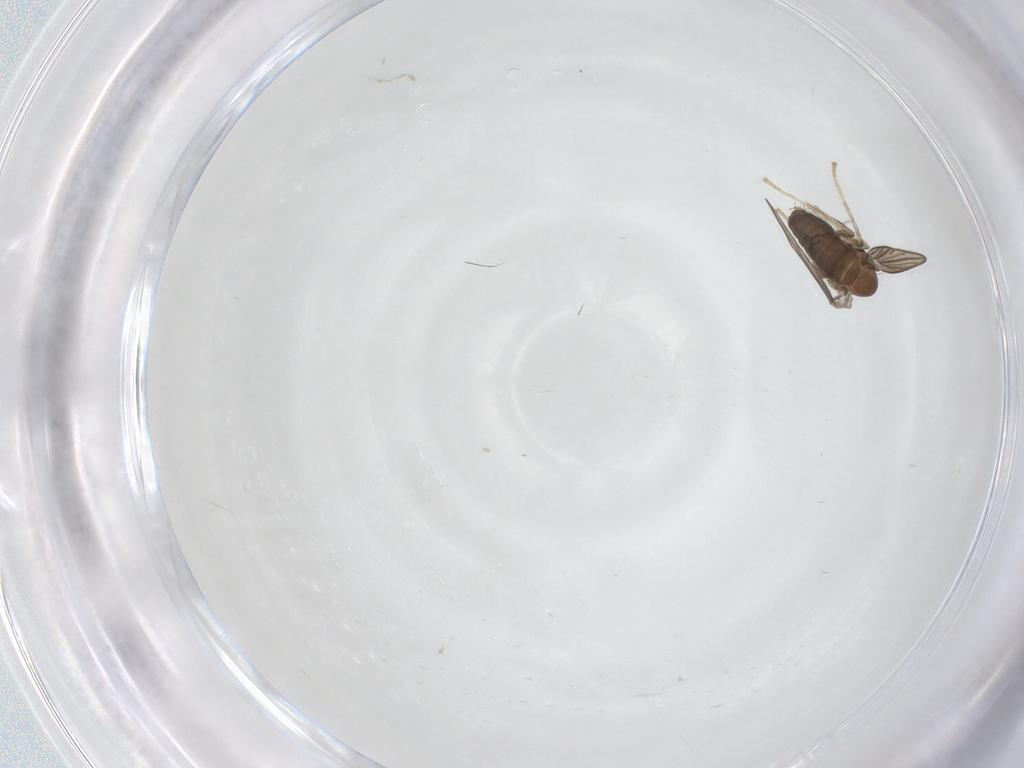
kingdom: Animalia
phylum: Arthropoda
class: Insecta
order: Diptera
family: Psychodidae
